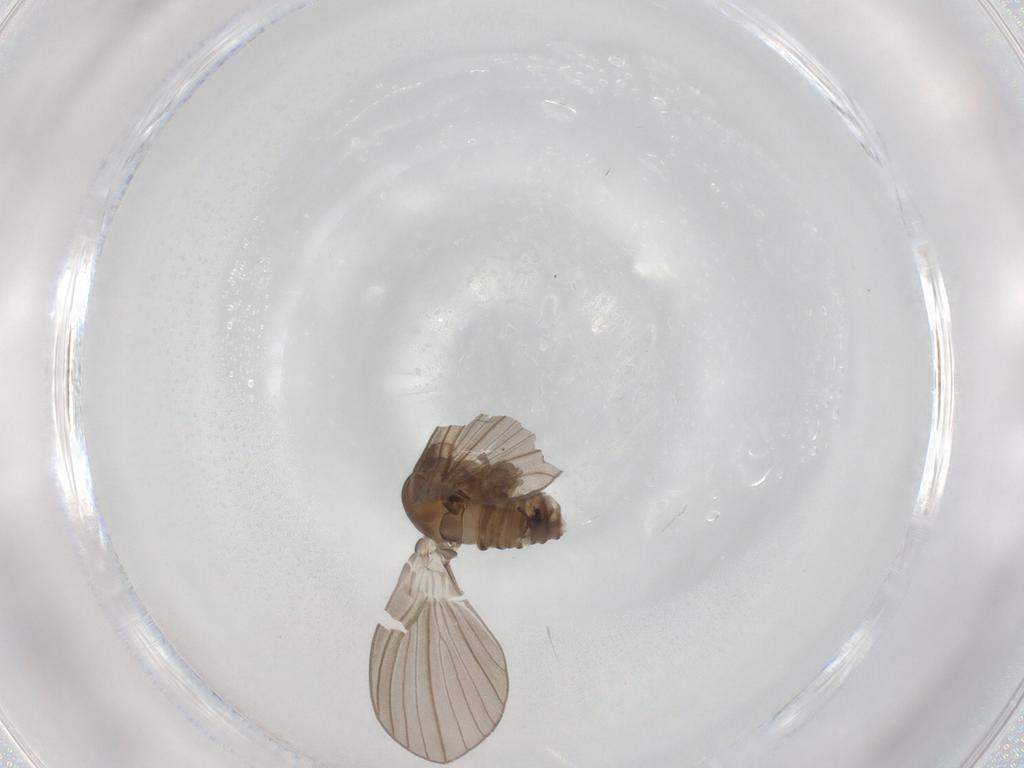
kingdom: Animalia
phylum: Arthropoda
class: Insecta
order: Diptera
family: Psychodidae
